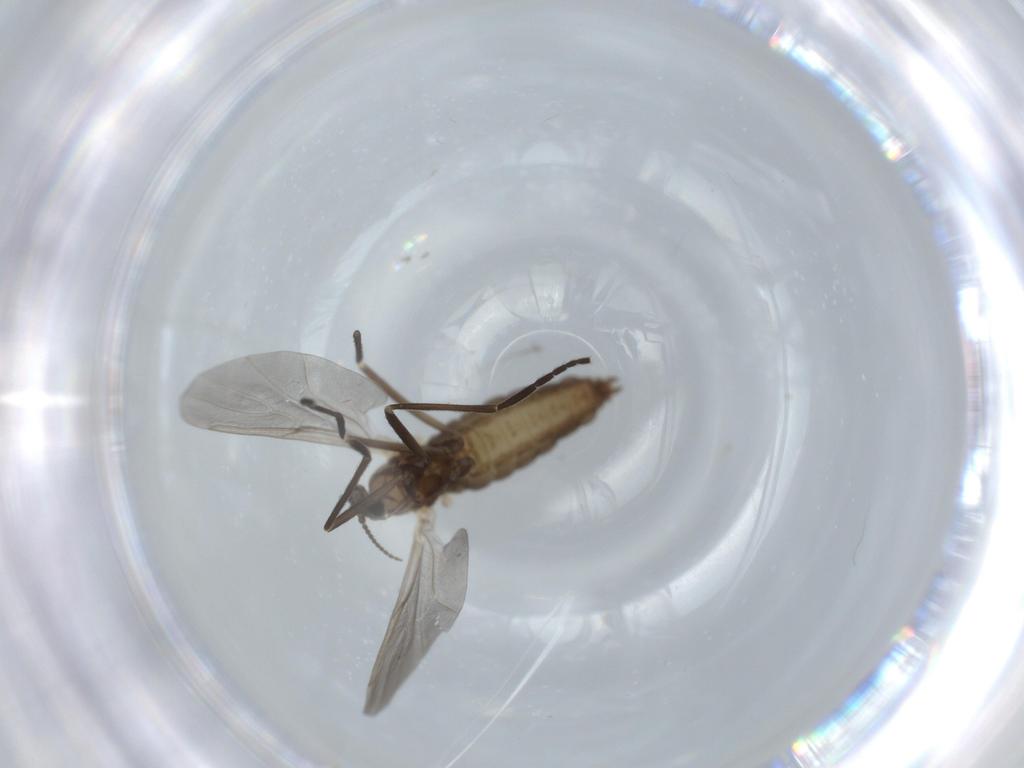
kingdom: Animalia
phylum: Arthropoda
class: Insecta
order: Diptera
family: Cecidomyiidae
